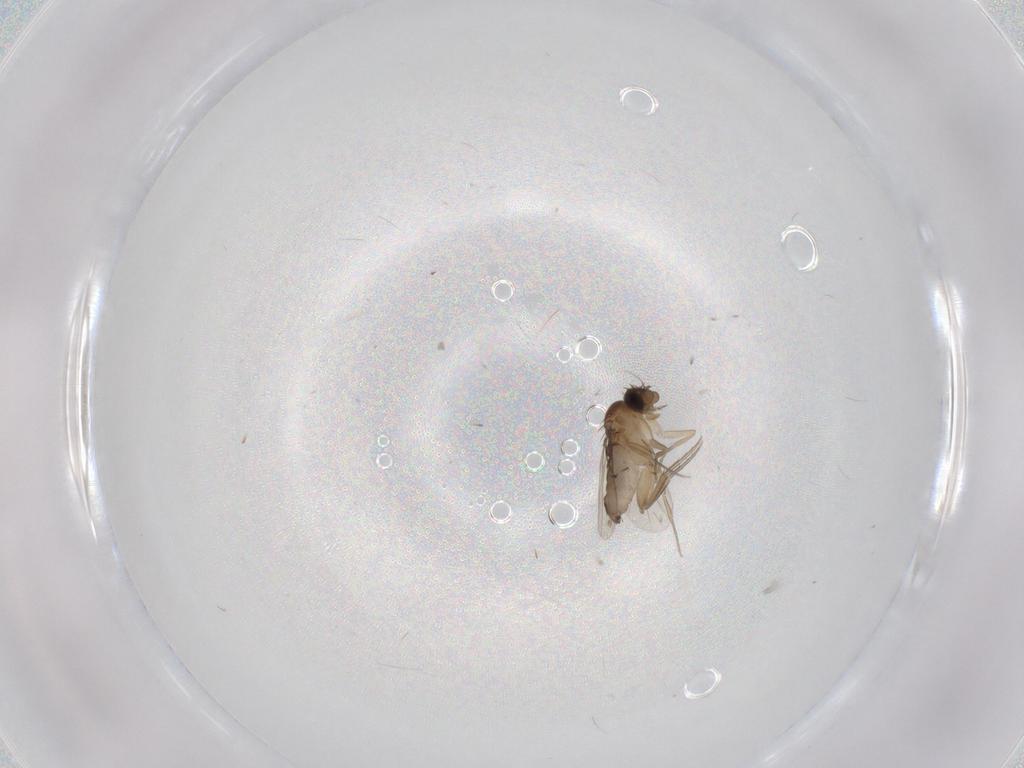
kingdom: Animalia
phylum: Arthropoda
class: Insecta
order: Diptera
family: Phoridae
